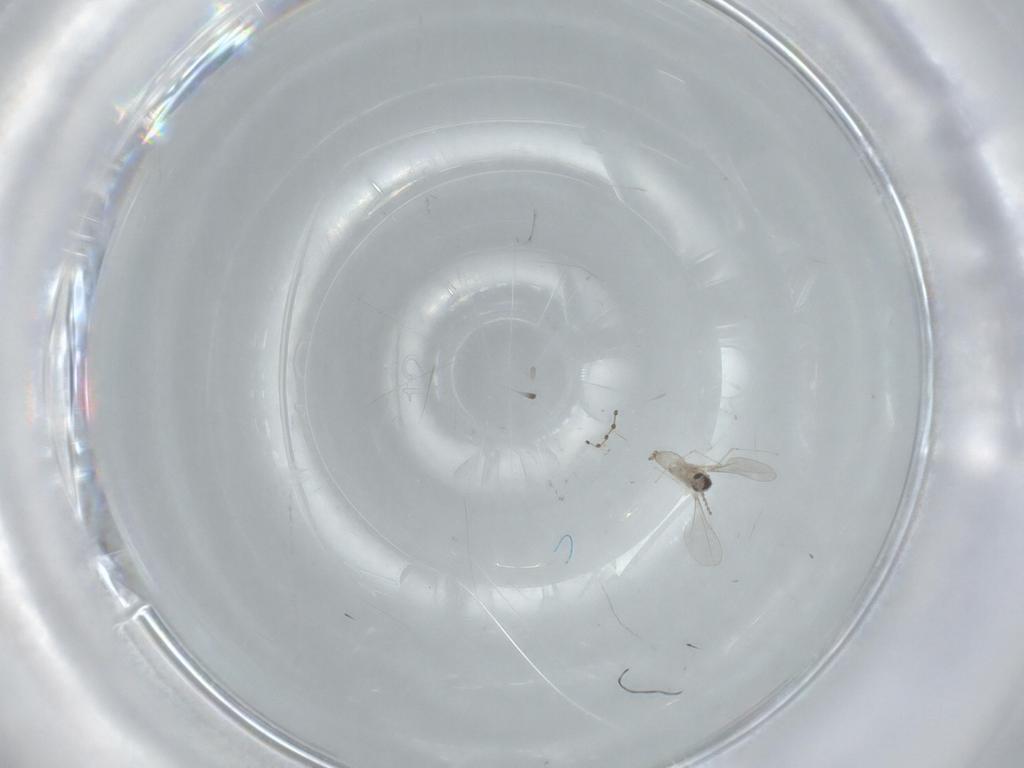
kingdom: Animalia
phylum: Arthropoda
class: Insecta
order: Diptera
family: Cecidomyiidae
